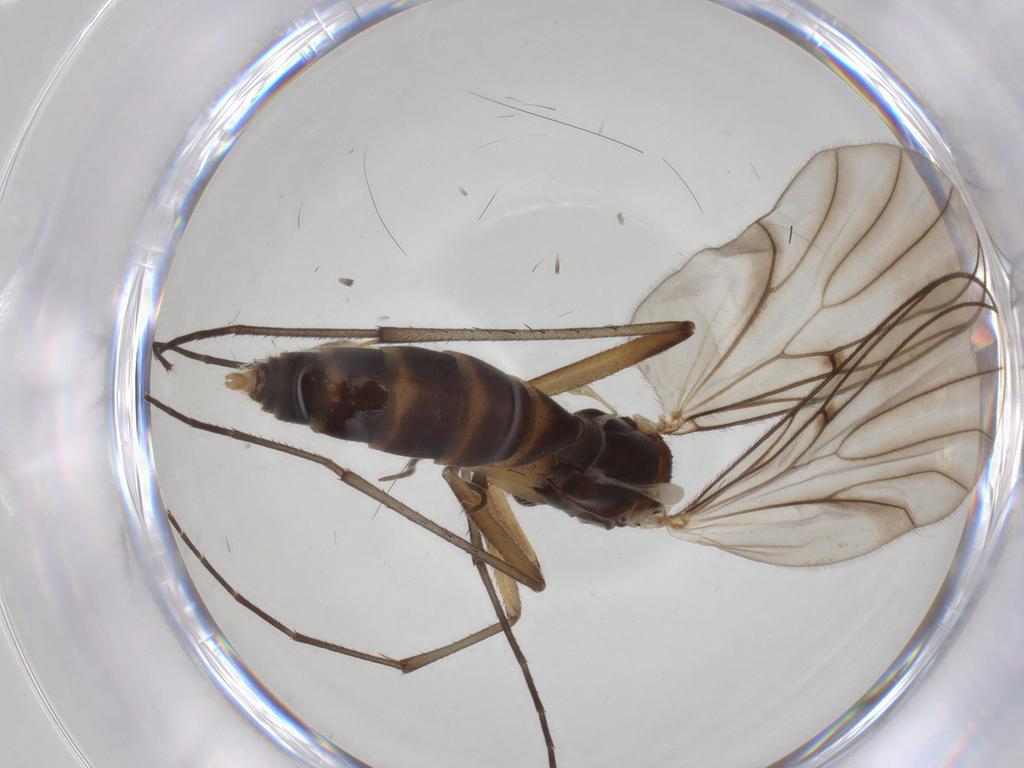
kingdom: Animalia
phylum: Arthropoda
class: Insecta
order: Diptera
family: Mycetophilidae
